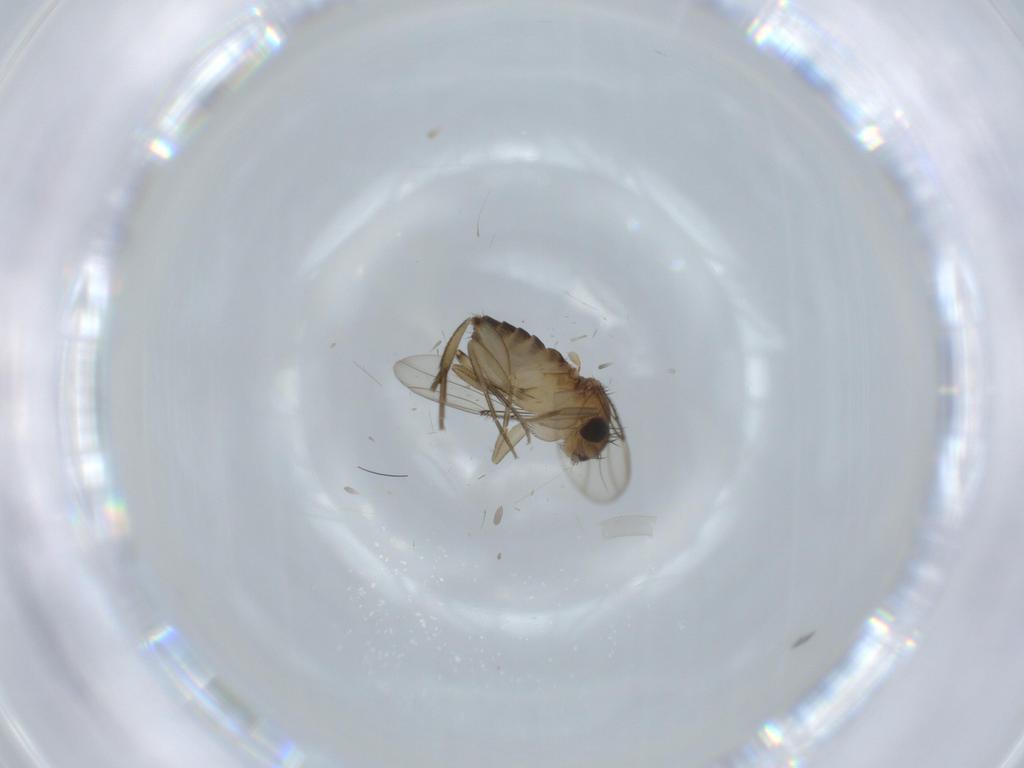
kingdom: Animalia
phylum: Arthropoda
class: Insecta
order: Diptera
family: Phoridae
